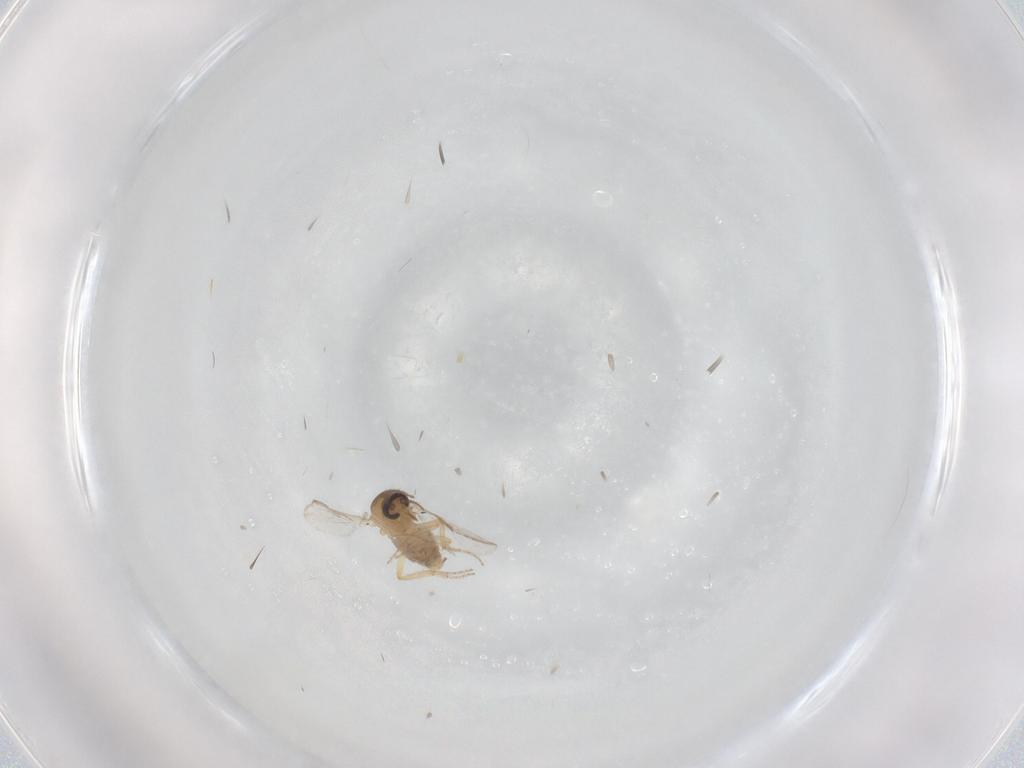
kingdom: Animalia
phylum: Arthropoda
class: Insecta
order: Diptera
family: Ceratopogonidae
